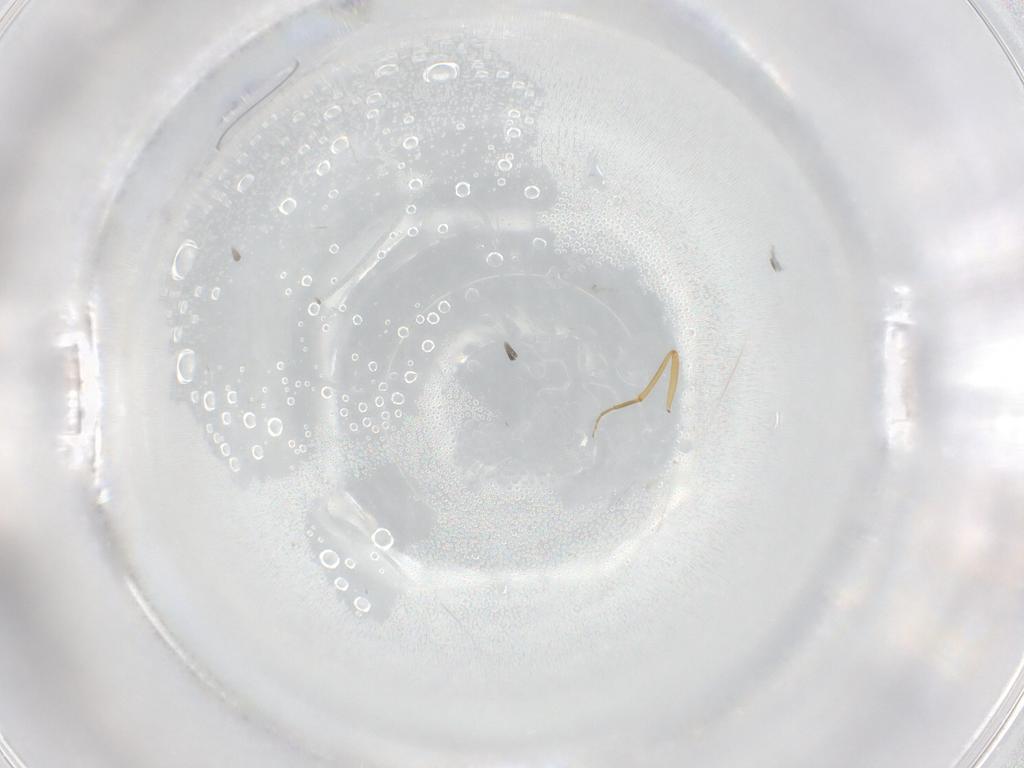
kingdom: Animalia
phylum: Arthropoda
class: Insecta
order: Diptera
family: Ceratopogonidae
